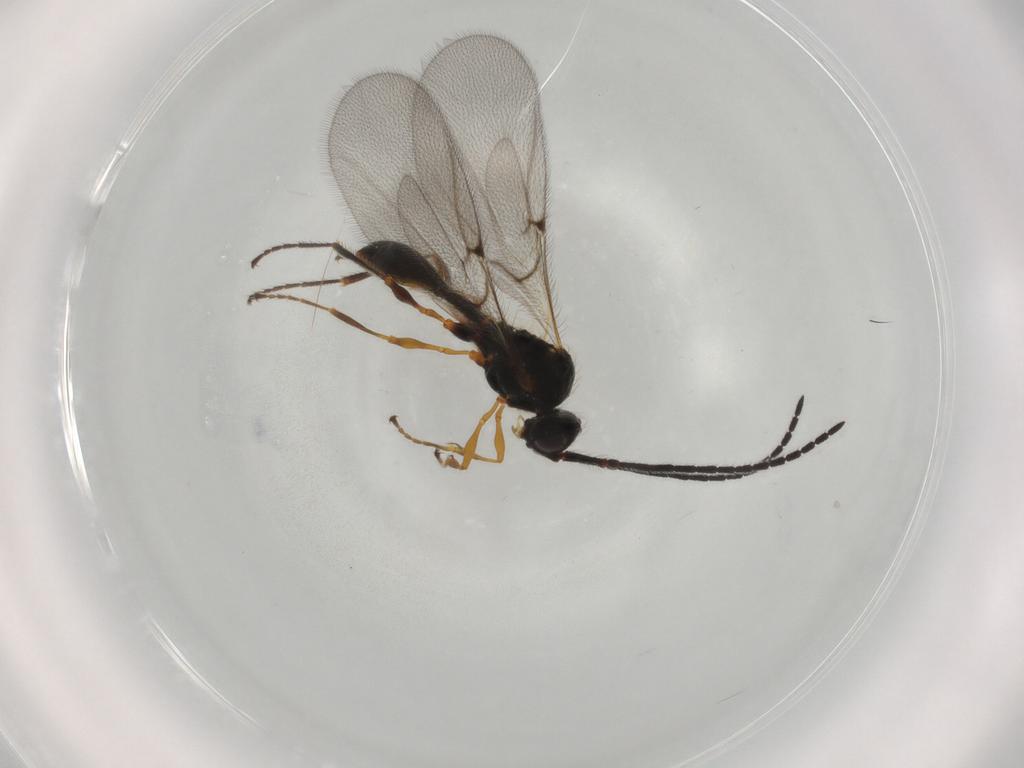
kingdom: Animalia
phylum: Arthropoda
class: Insecta
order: Hymenoptera
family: Diapriidae
